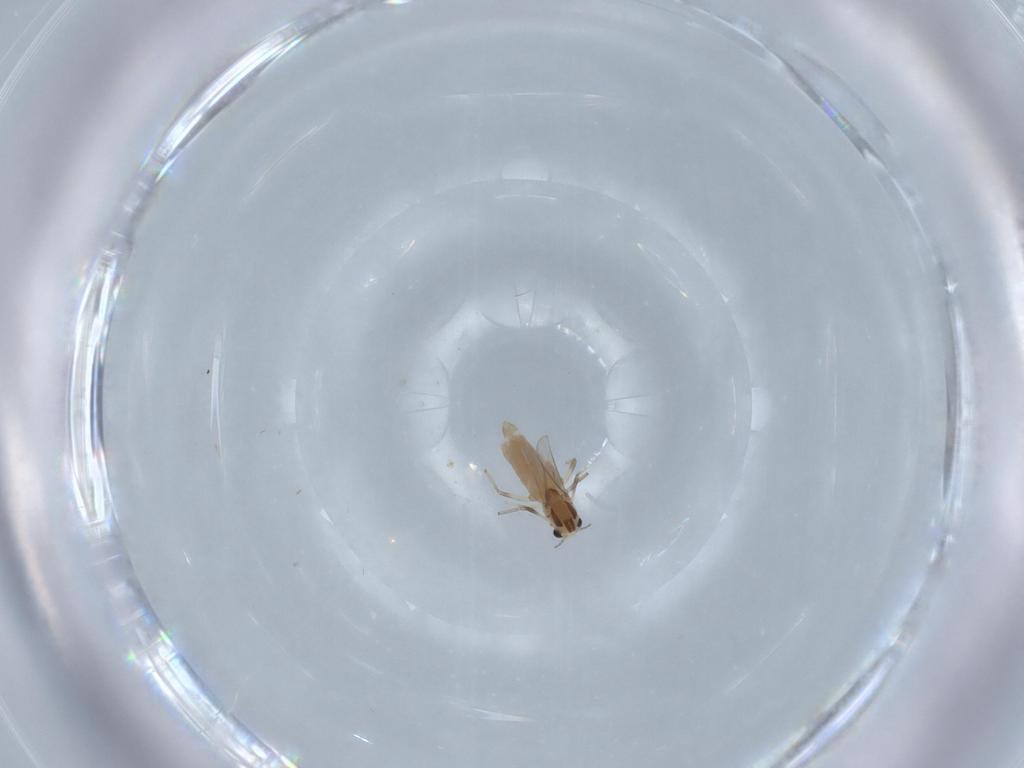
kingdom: Animalia
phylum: Arthropoda
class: Insecta
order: Diptera
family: Chironomidae
